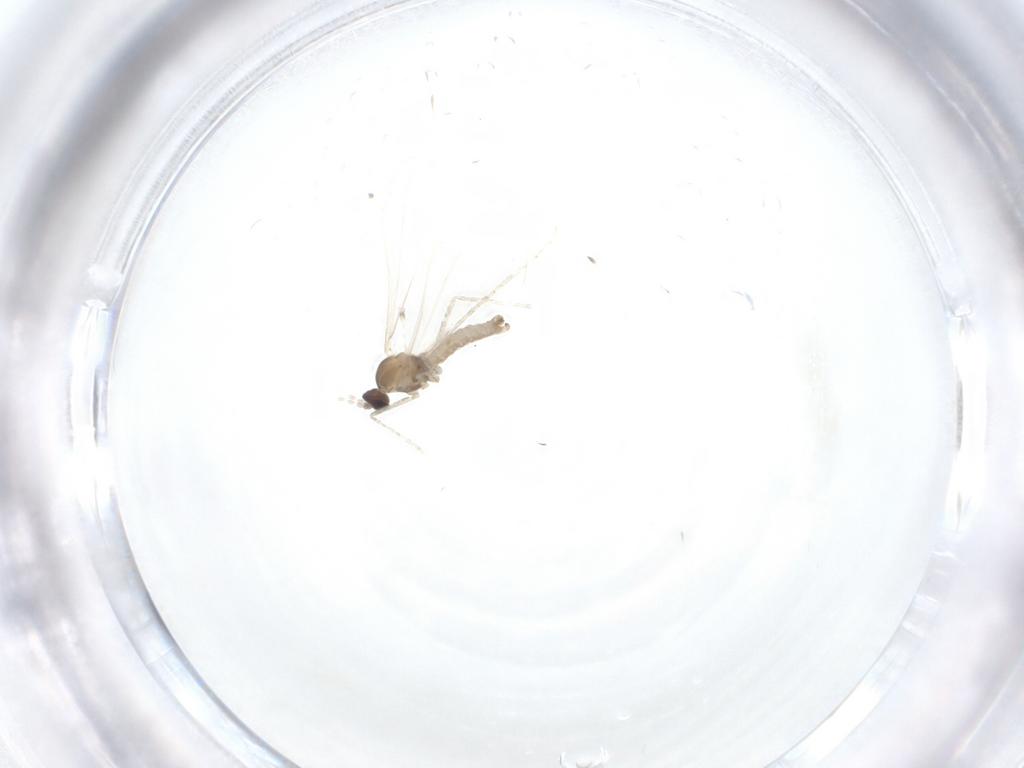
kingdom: Animalia
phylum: Arthropoda
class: Insecta
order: Diptera
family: Cecidomyiidae
